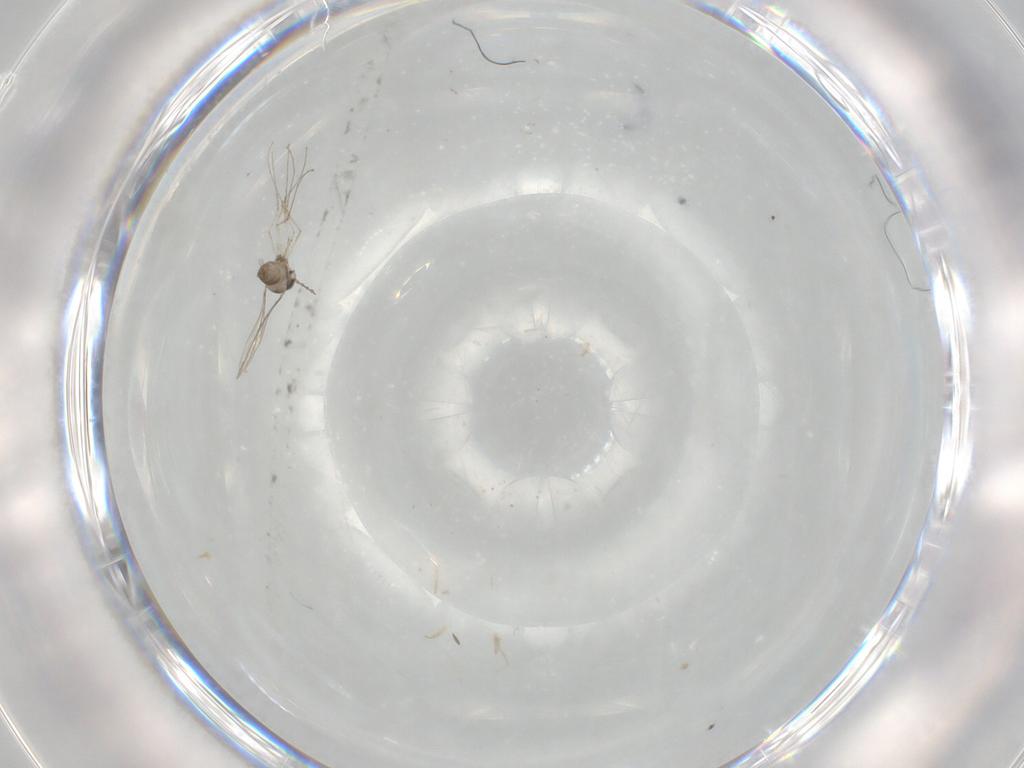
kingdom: Animalia
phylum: Arthropoda
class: Insecta
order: Diptera
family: Cecidomyiidae
